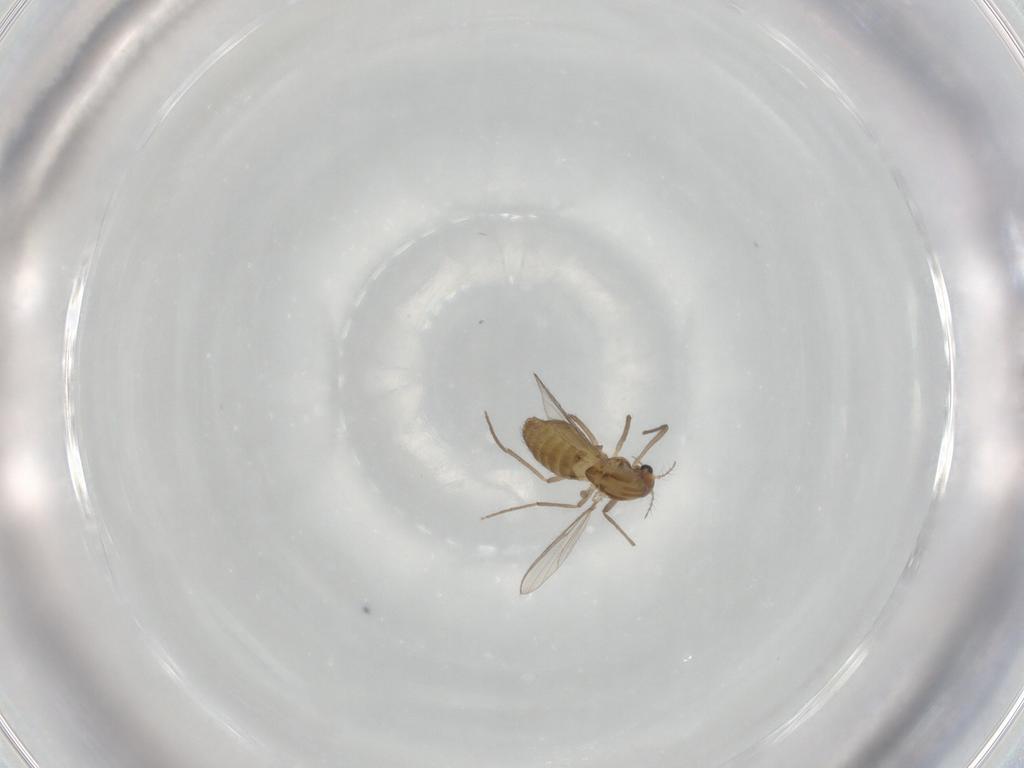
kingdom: Animalia
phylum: Arthropoda
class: Insecta
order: Diptera
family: Chironomidae
